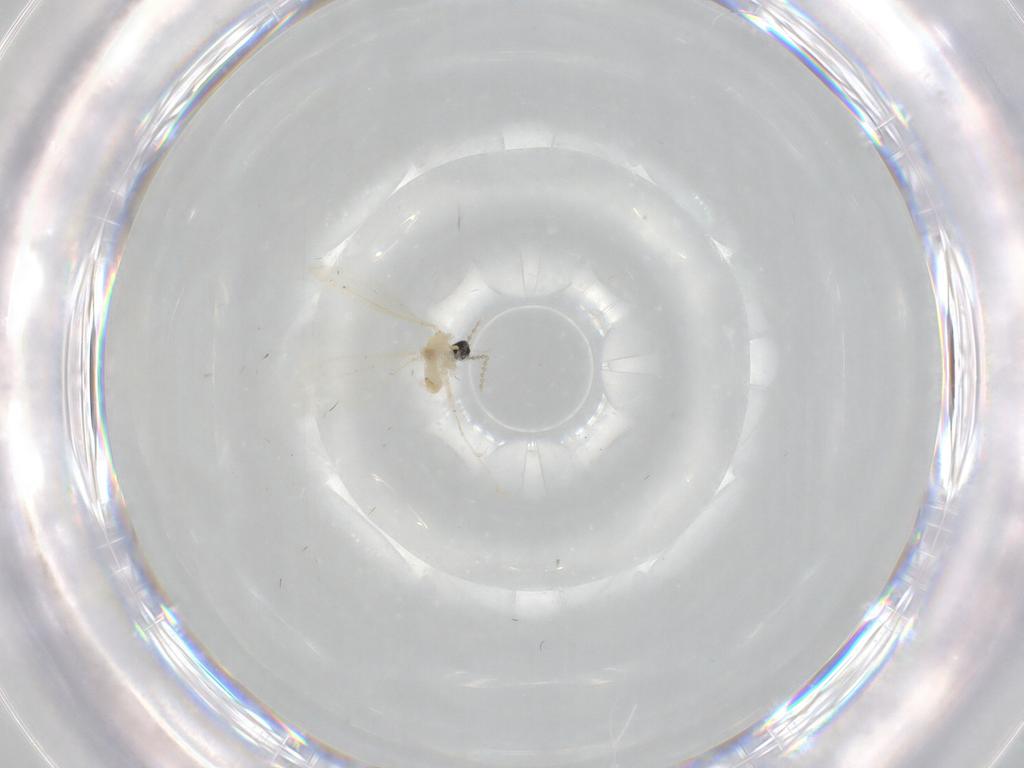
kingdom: Animalia
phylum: Arthropoda
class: Insecta
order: Diptera
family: Cecidomyiidae
